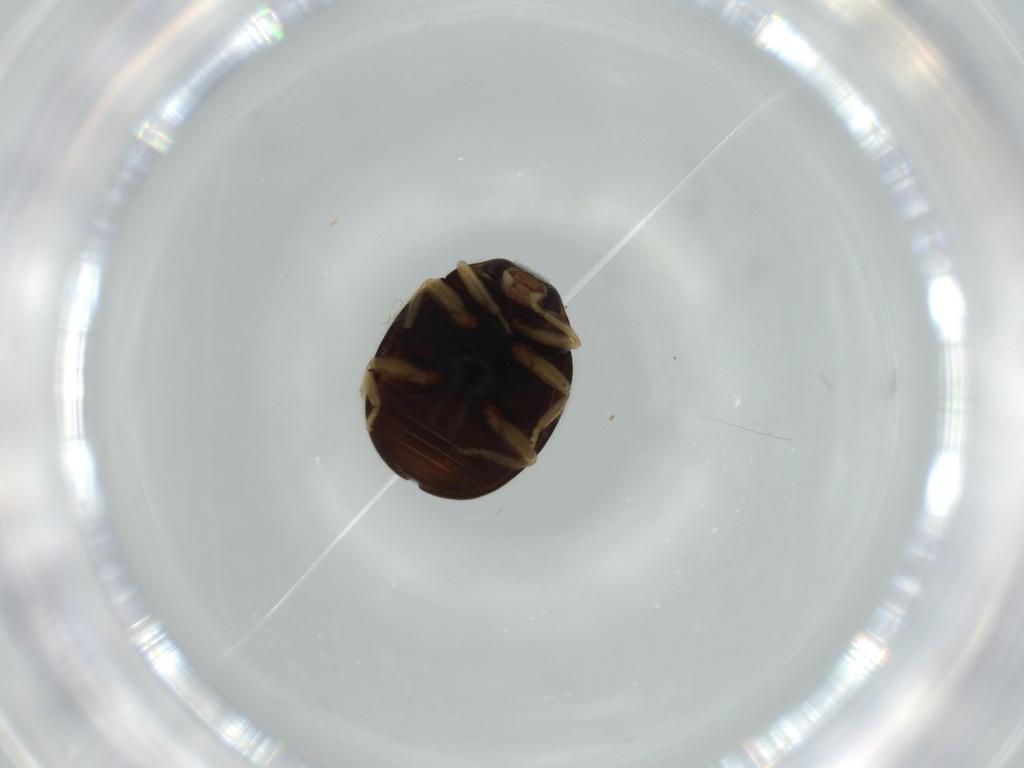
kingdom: Animalia
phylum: Arthropoda
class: Insecta
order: Coleoptera
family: Coccinellidae
